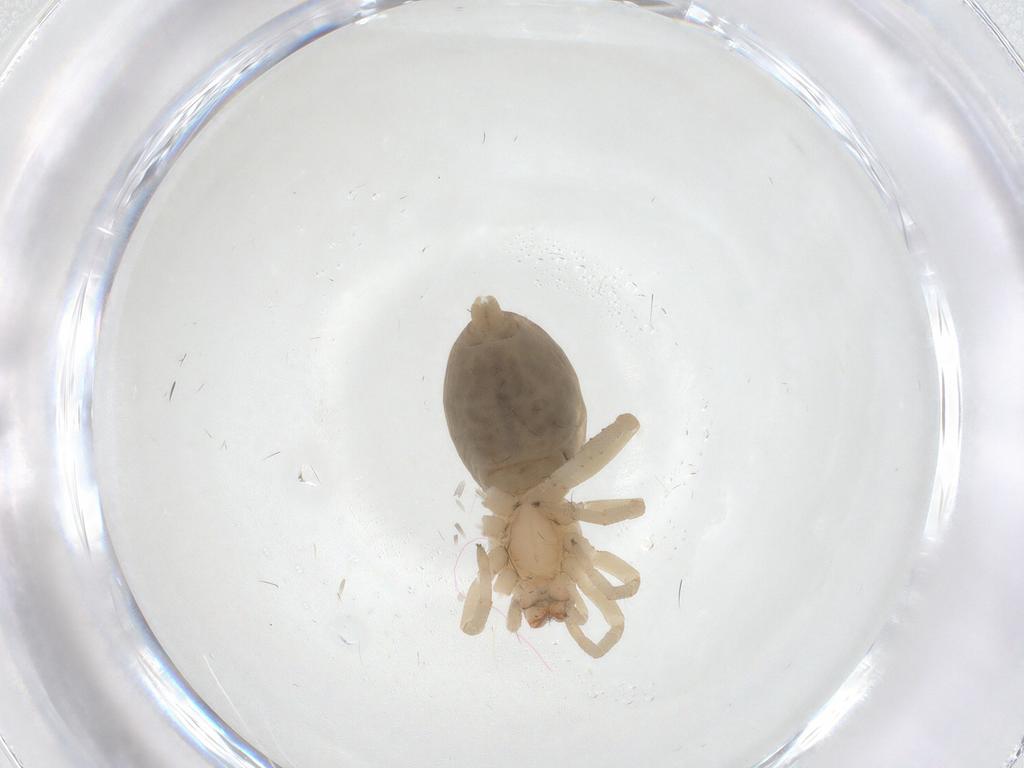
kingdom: Animalia
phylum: Arthropoda
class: Arachnida
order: Araneae
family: Clubionidae
